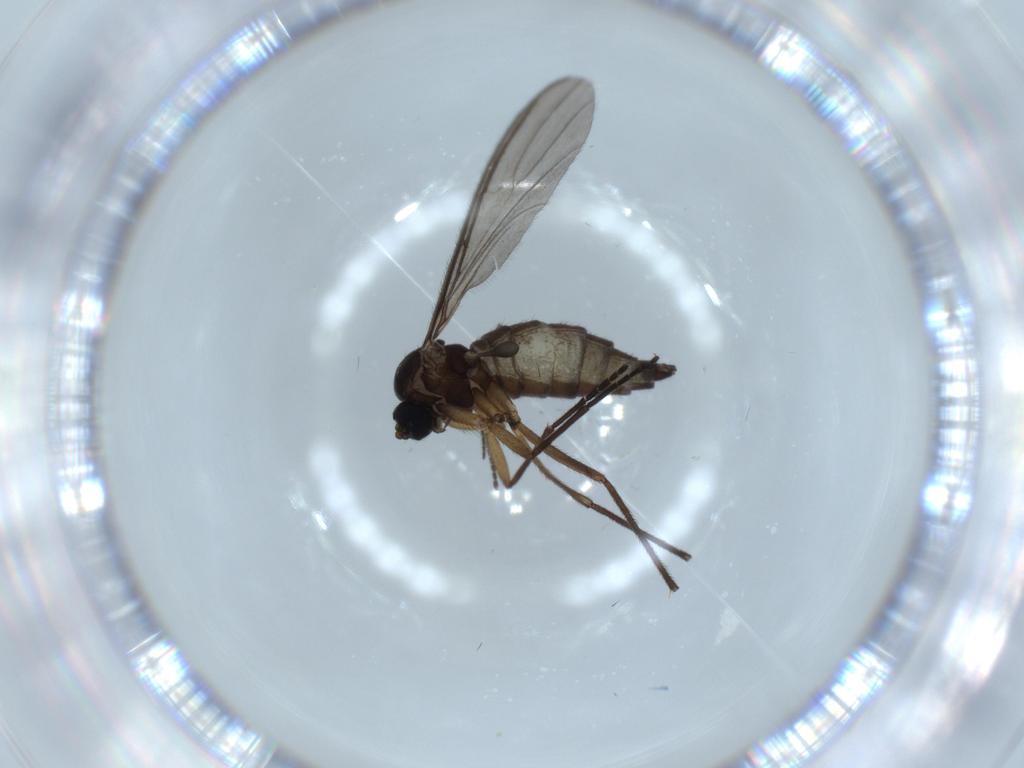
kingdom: Animalia
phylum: Arthropoda
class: Insecta
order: Diptera
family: Sciaridae
